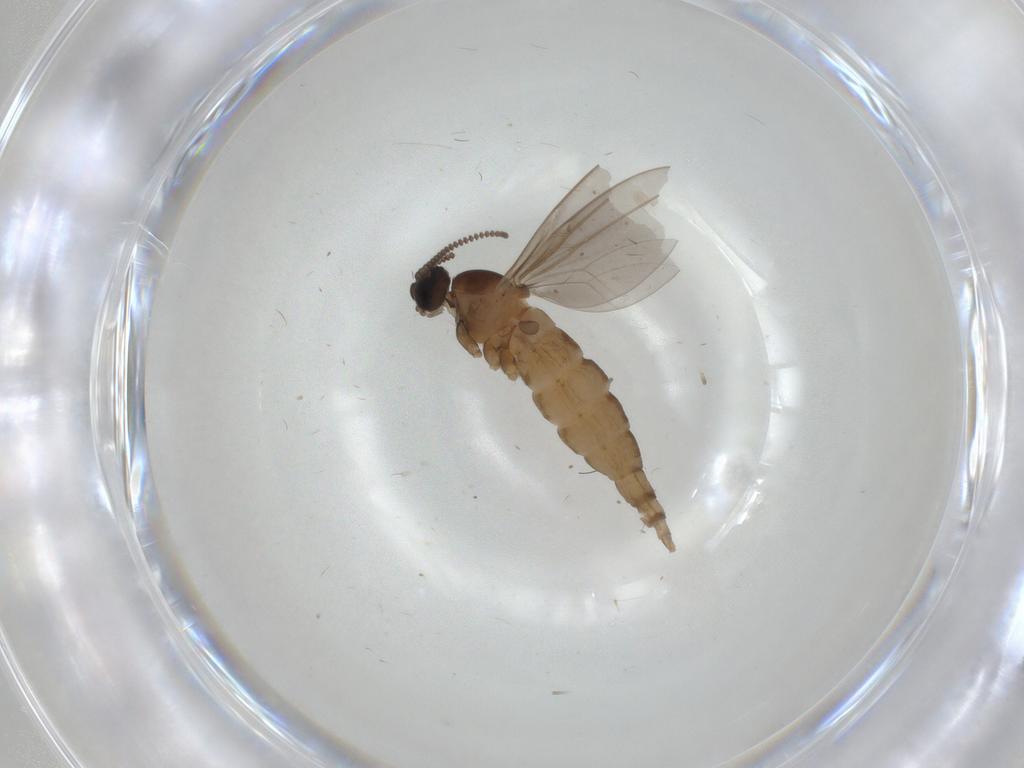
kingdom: Animalia
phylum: Arthropoda
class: Insecta
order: Diptera
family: Cecidomyiidae
